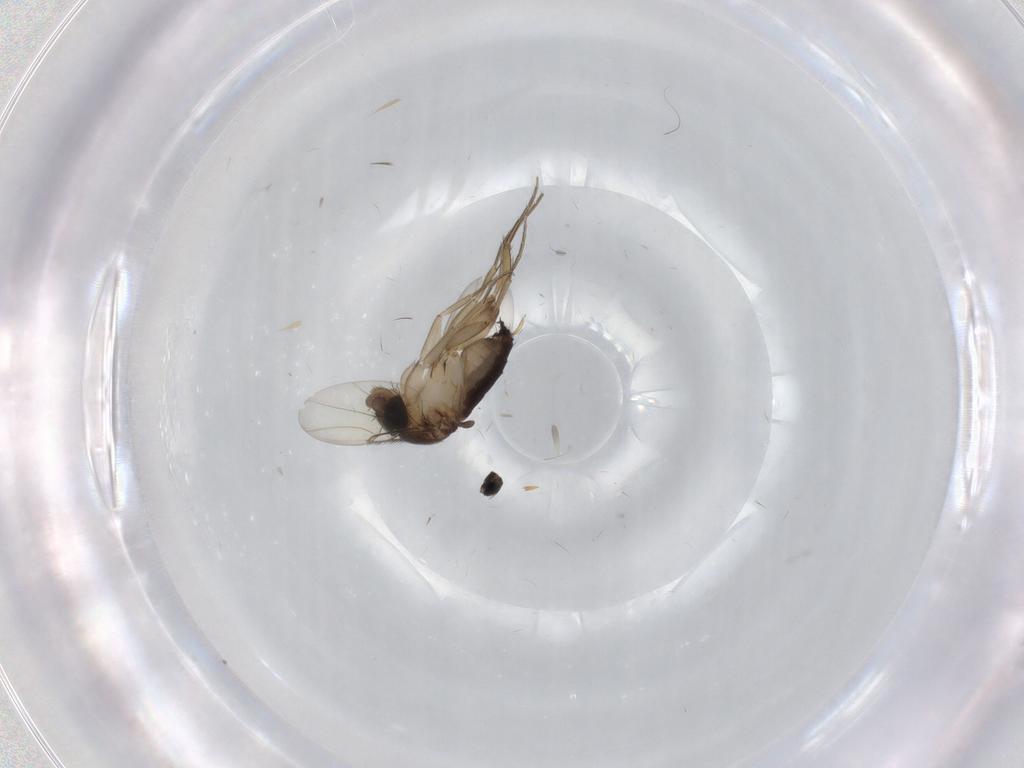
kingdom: Animalia
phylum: Arthropoda
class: Insecta
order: Diptera
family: Phoridae
